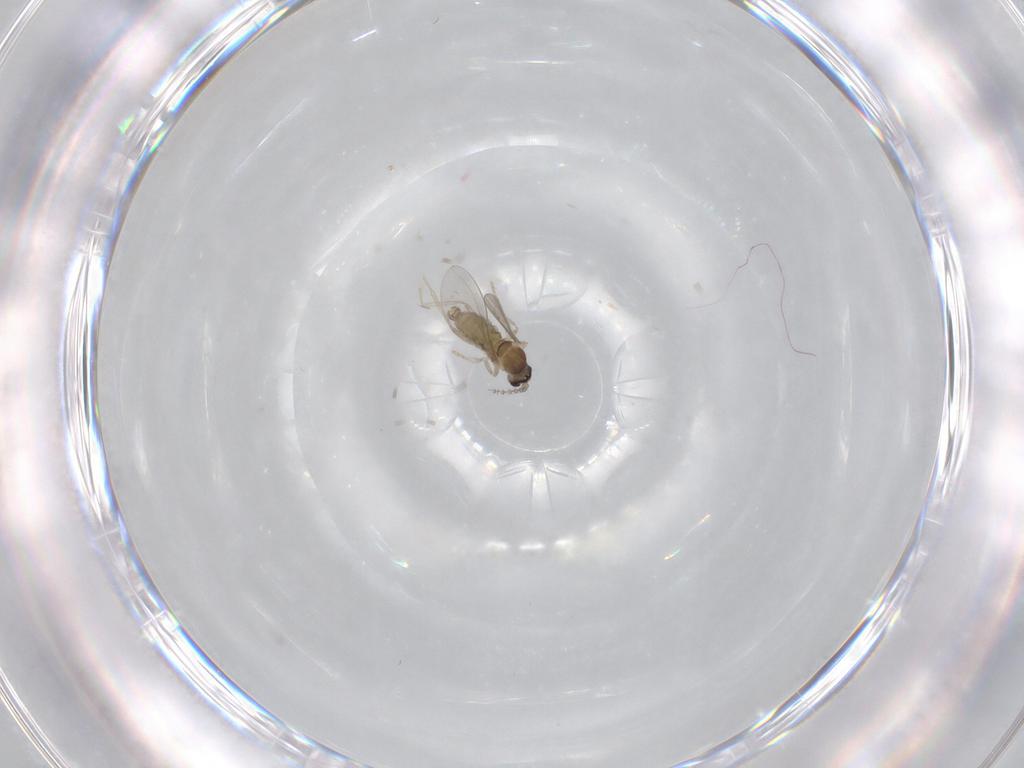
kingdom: Animalia
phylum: Arthropoda
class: Insecta
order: Diptera
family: Cecidomyiidae
